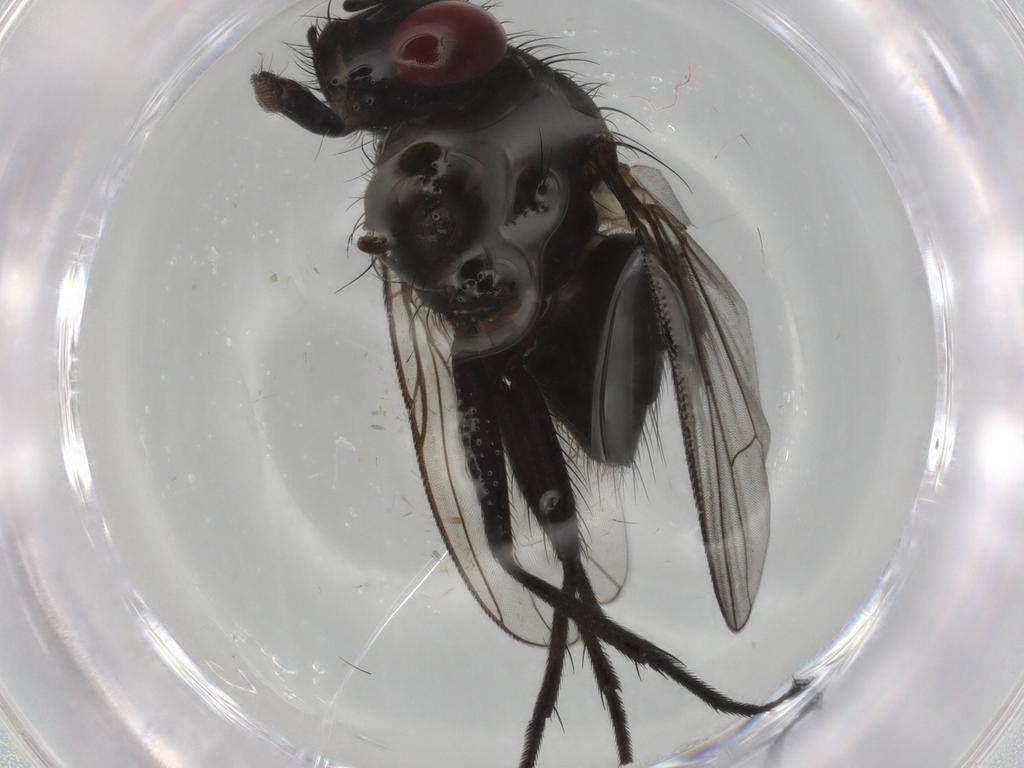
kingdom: Animalia
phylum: Arthropoda
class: Insecta
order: Diptera
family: Muscidae
